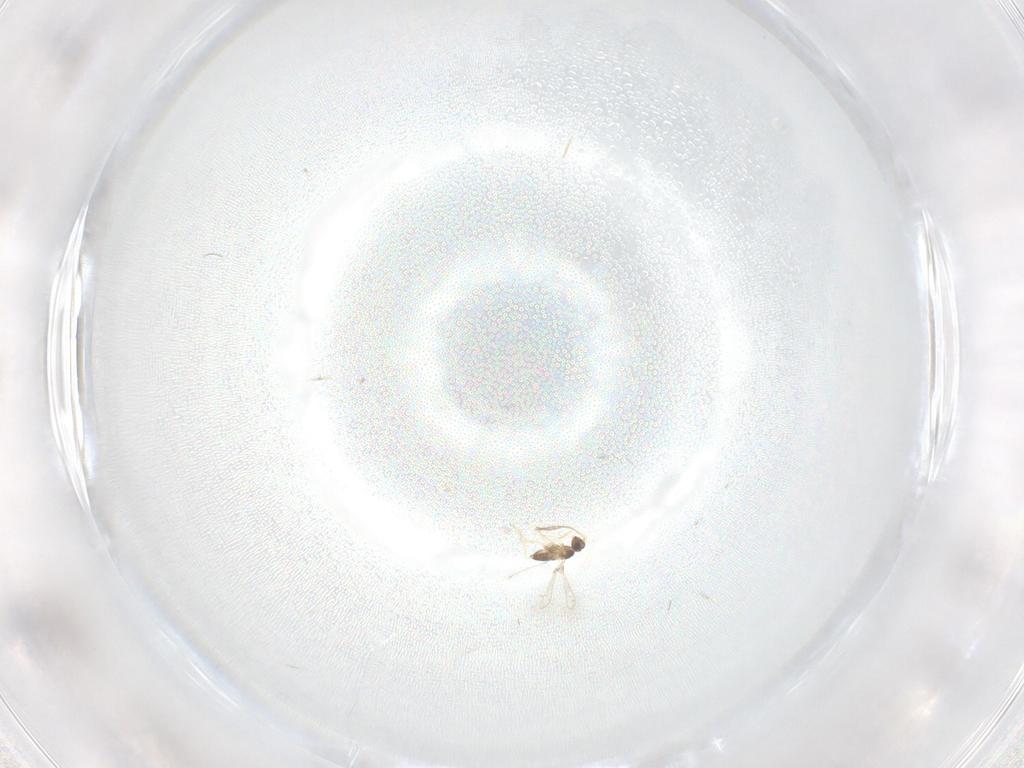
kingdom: Animalia
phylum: Arthropoda
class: Insecta
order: Hymenoptera
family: Mymaridae
